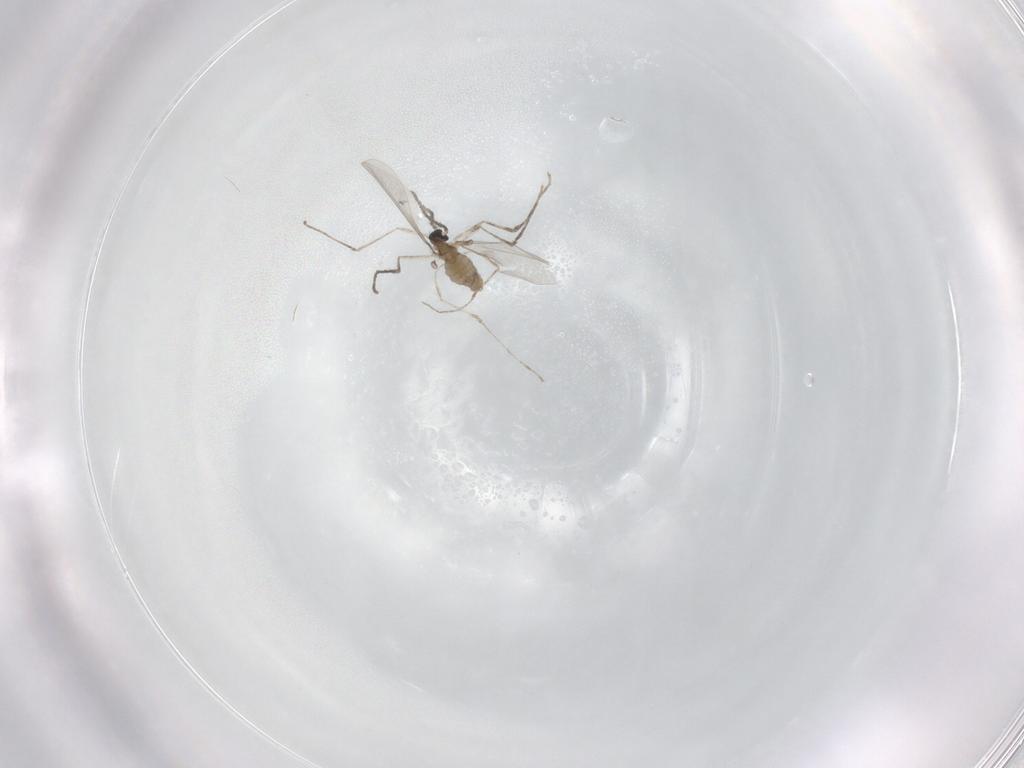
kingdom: Animalia
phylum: Arthropoda
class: Insecta
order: Diptera
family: Cecidomyiidae
